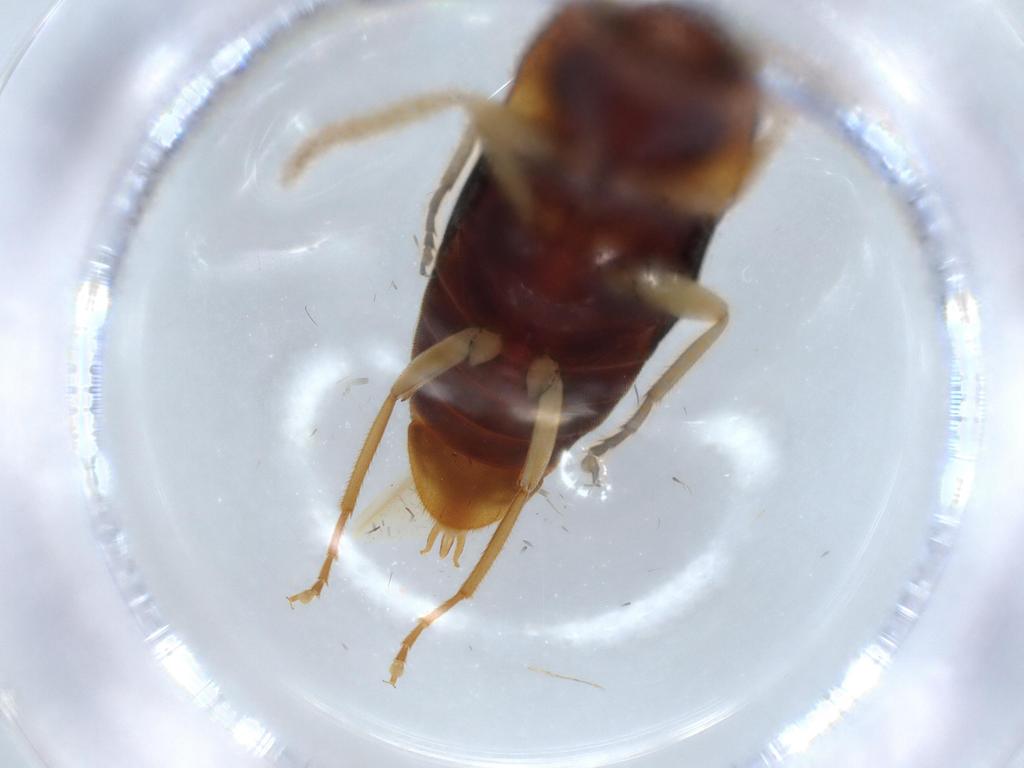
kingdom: Animalia
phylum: Arthropoda
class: Insecta
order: Coleoptera
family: Elateridae
